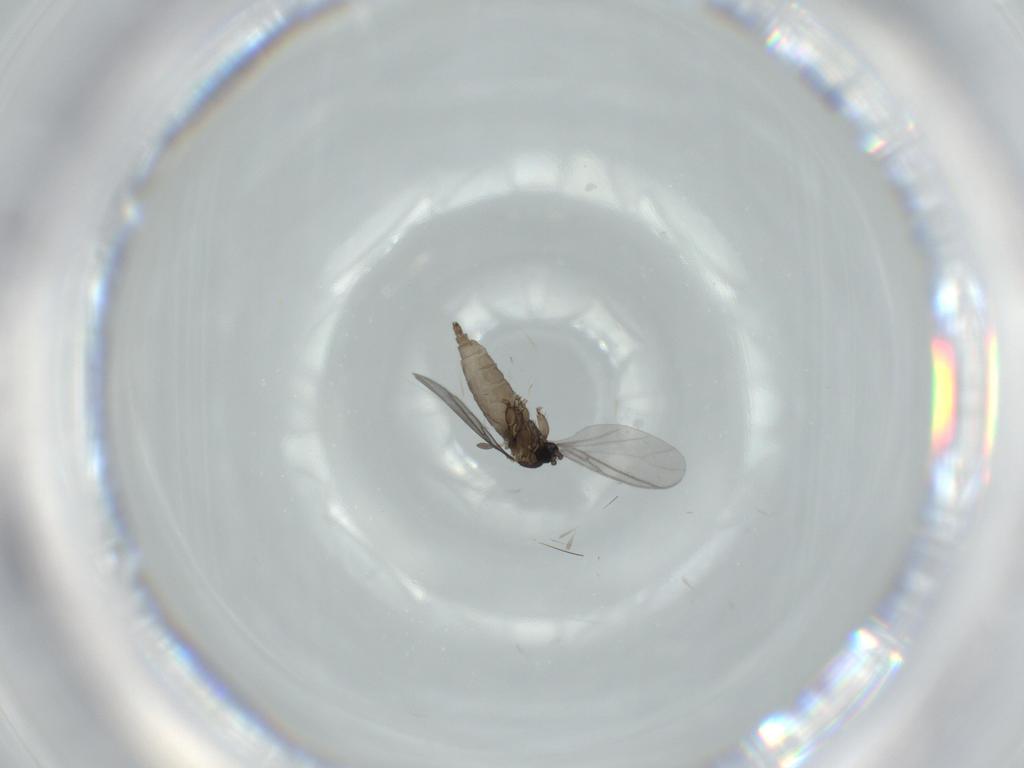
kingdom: Animalia
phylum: Arthropoda
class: Insecta
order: Diptera
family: Sciaridae
